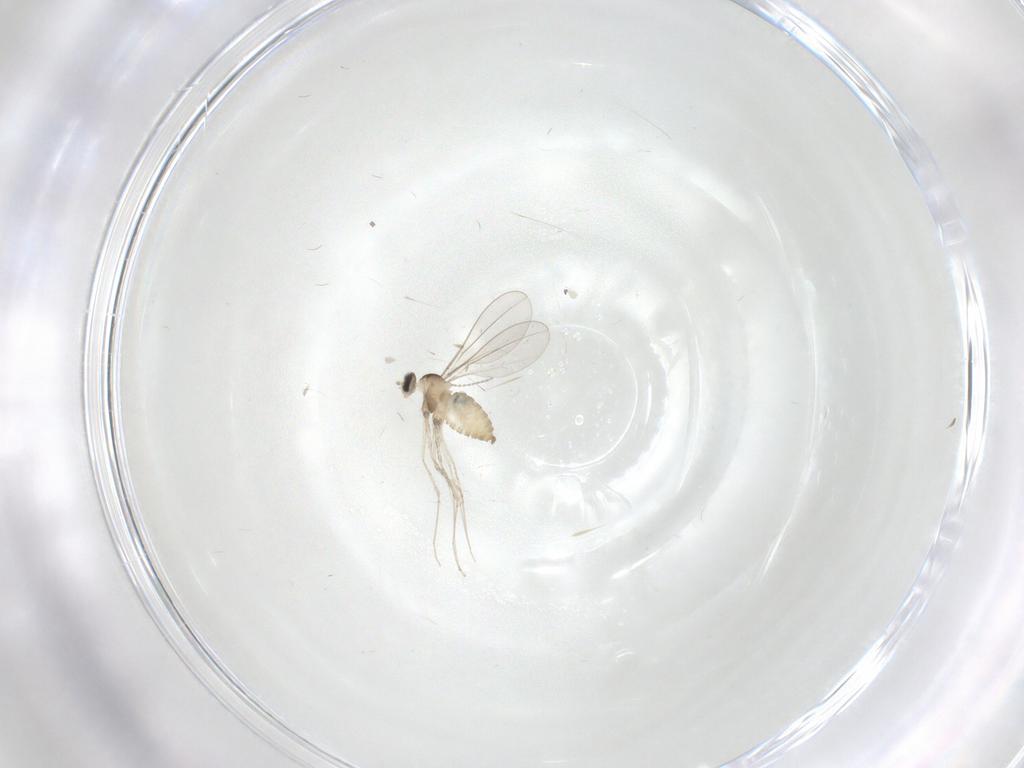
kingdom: Animalia
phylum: Arthropoda
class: Insecta
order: Diptera
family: Cecidomyiidae
